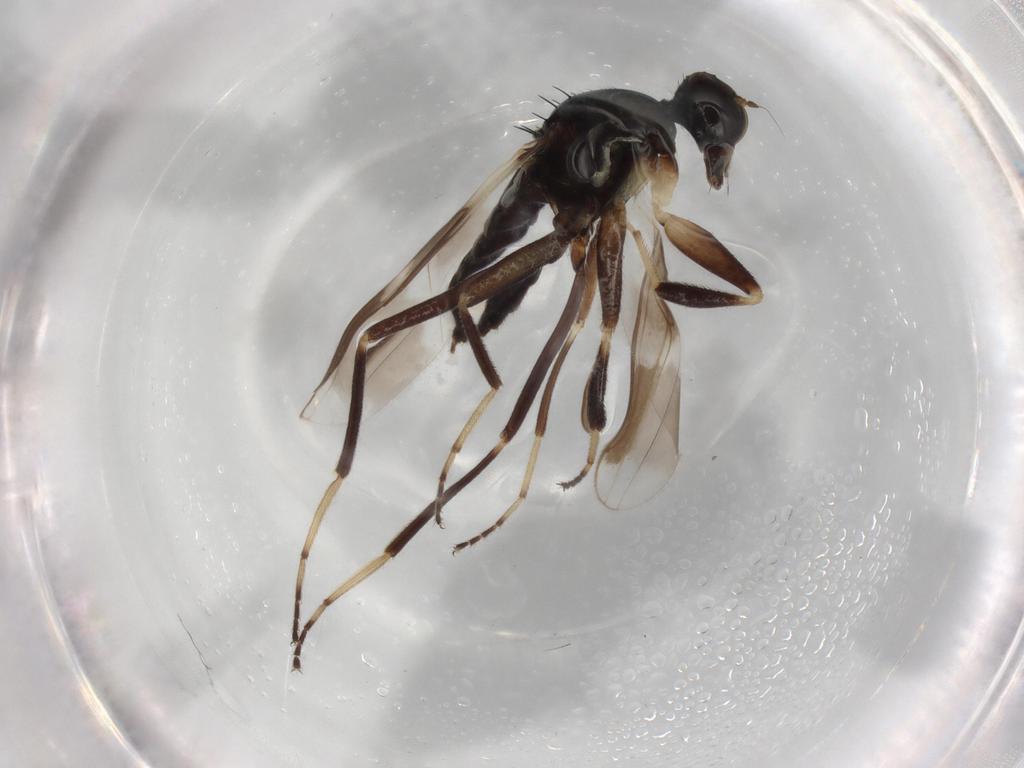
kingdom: Animalia
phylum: Arthropoda
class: Insecta
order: Diptera
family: Hybotidae
